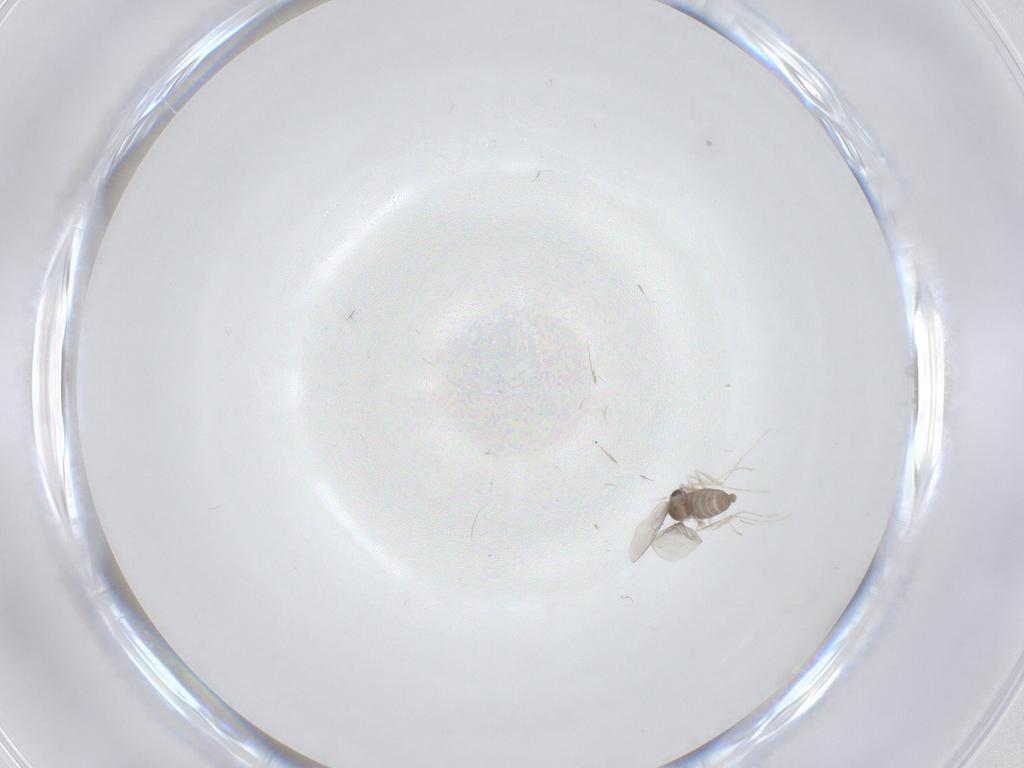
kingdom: Animalia
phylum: Arthropoda
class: Insecta
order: Diptera
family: Cecidomyiidae
